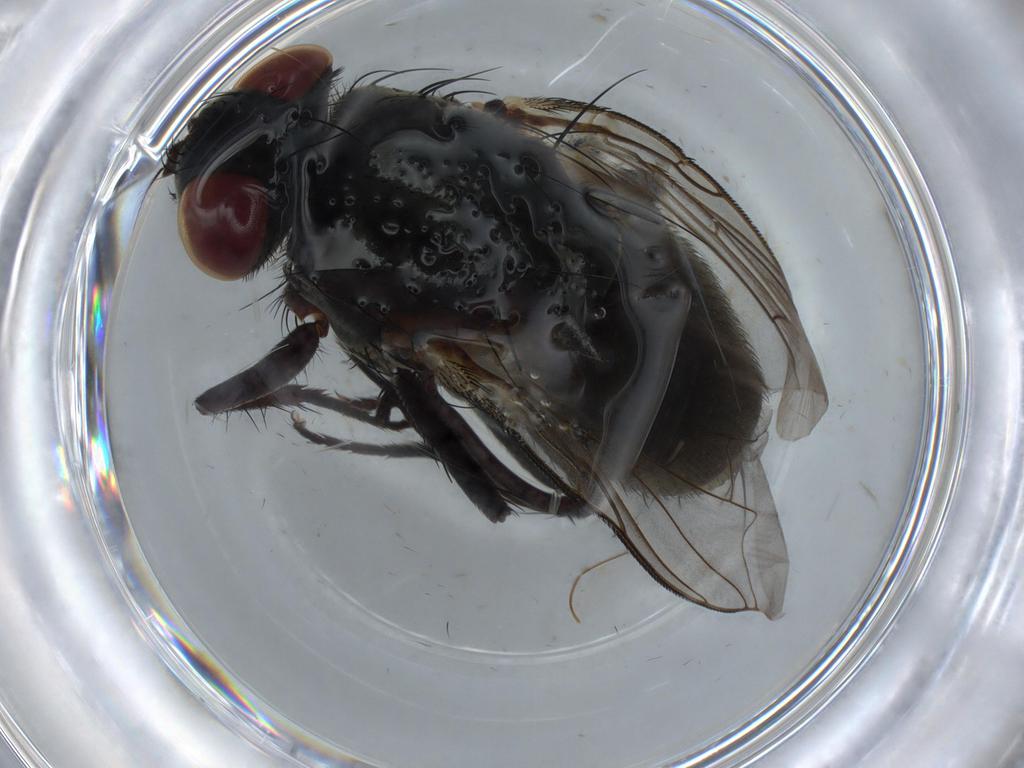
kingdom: Animalia
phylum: Arthropoda
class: Insecta
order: Diptera
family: Sarcophagidae
